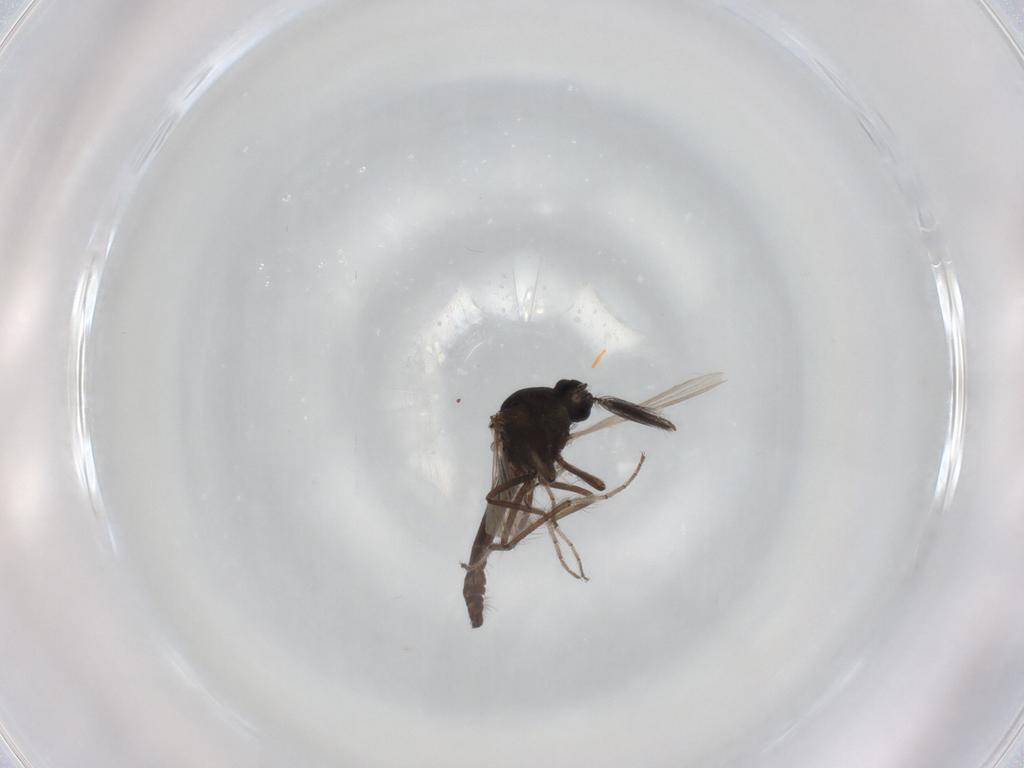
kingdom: Animalia
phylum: Arthropoda
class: Insecta
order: Diptera
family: Ceratopogonidae
